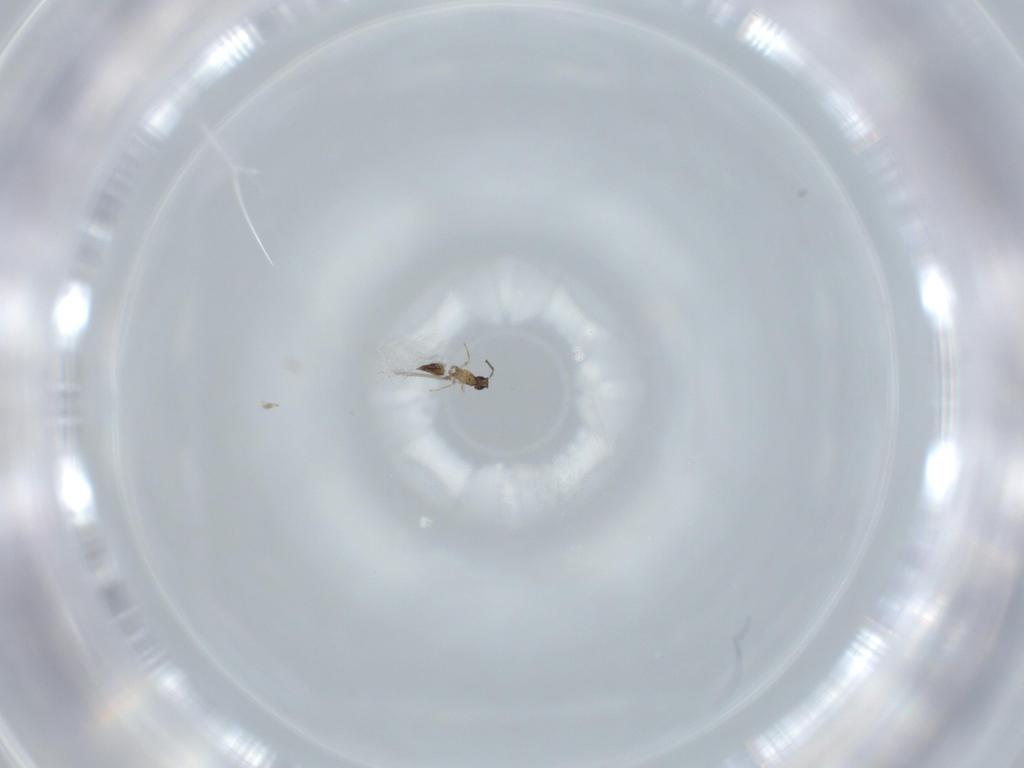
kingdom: Animalia
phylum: Arthropoda
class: Insecta
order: Hymenoptera
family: Mymaridae
